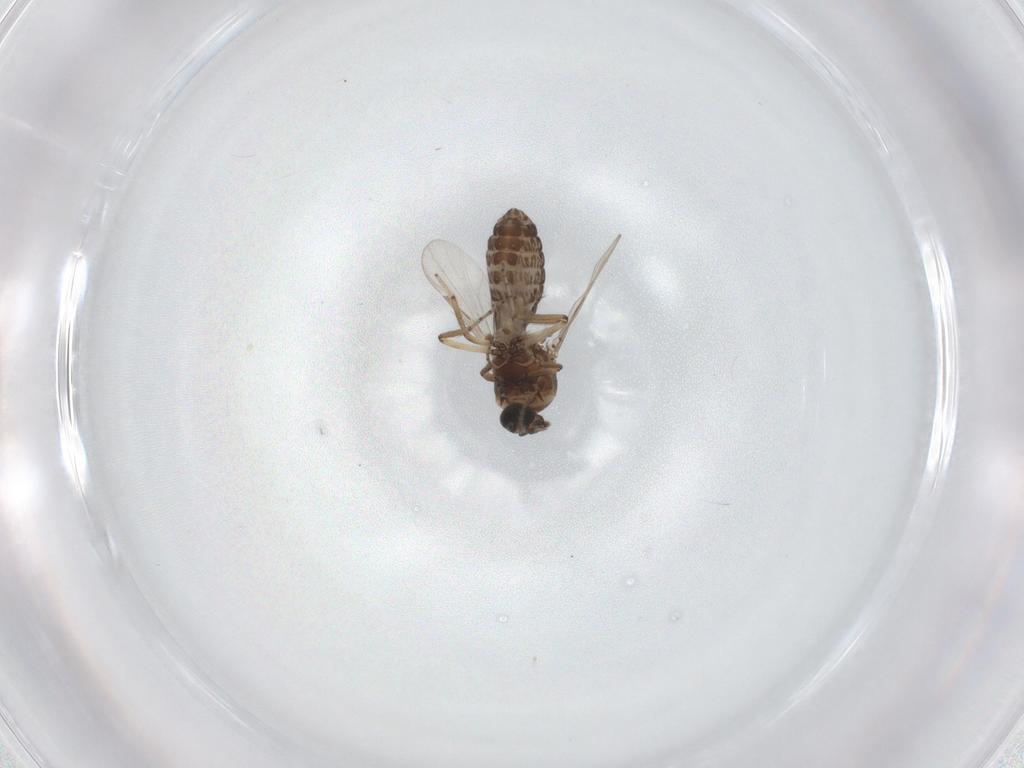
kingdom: Animalia
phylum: Arthropoda
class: Insecta
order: Diptera
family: Ceratopogonidae
